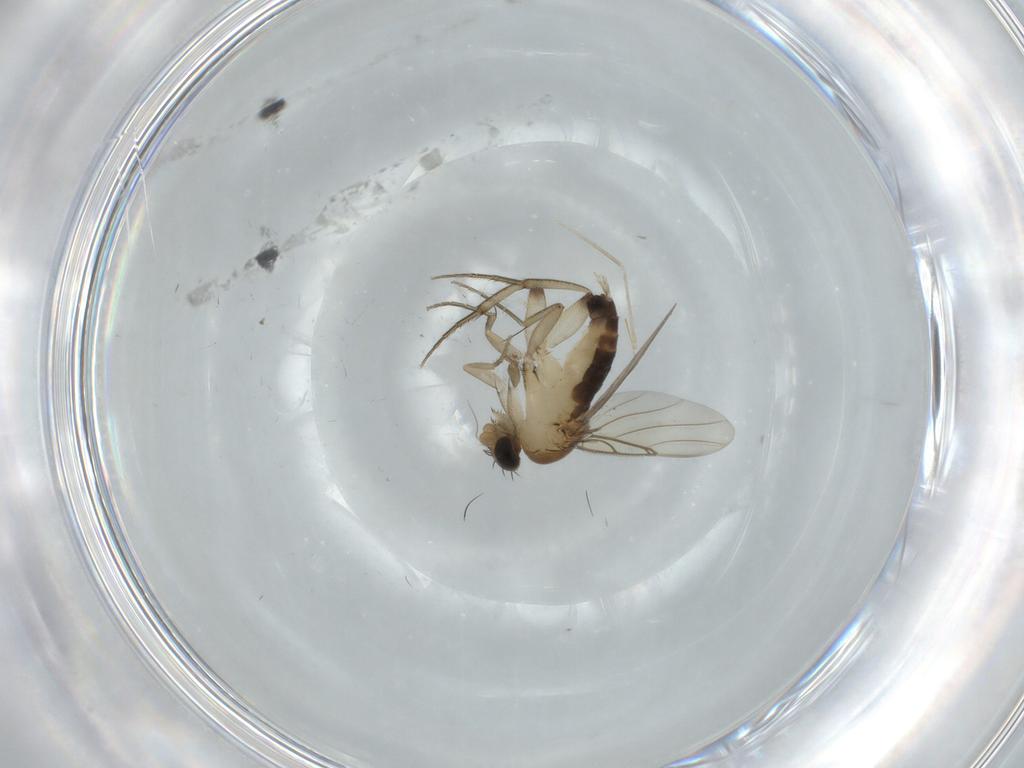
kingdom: Animalia
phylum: Arthropoda
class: Insecta
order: Diptera
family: Phoridae
